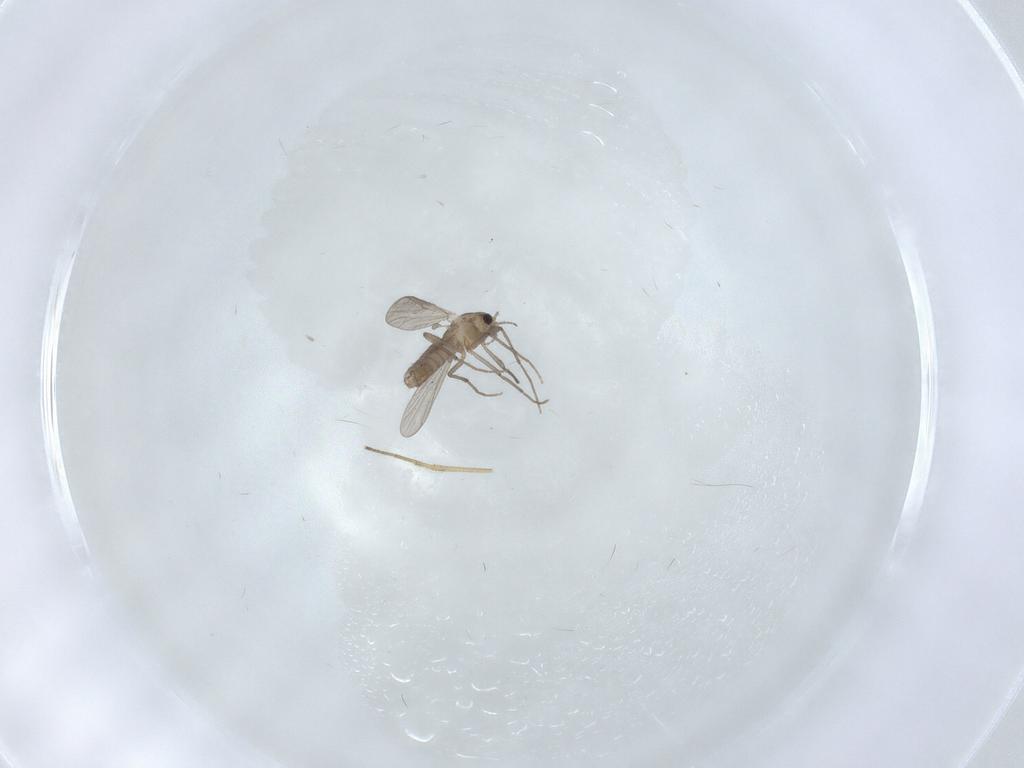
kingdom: Animalia
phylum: Arthropoda
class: Insecta
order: Diptera
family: Chironomidae
